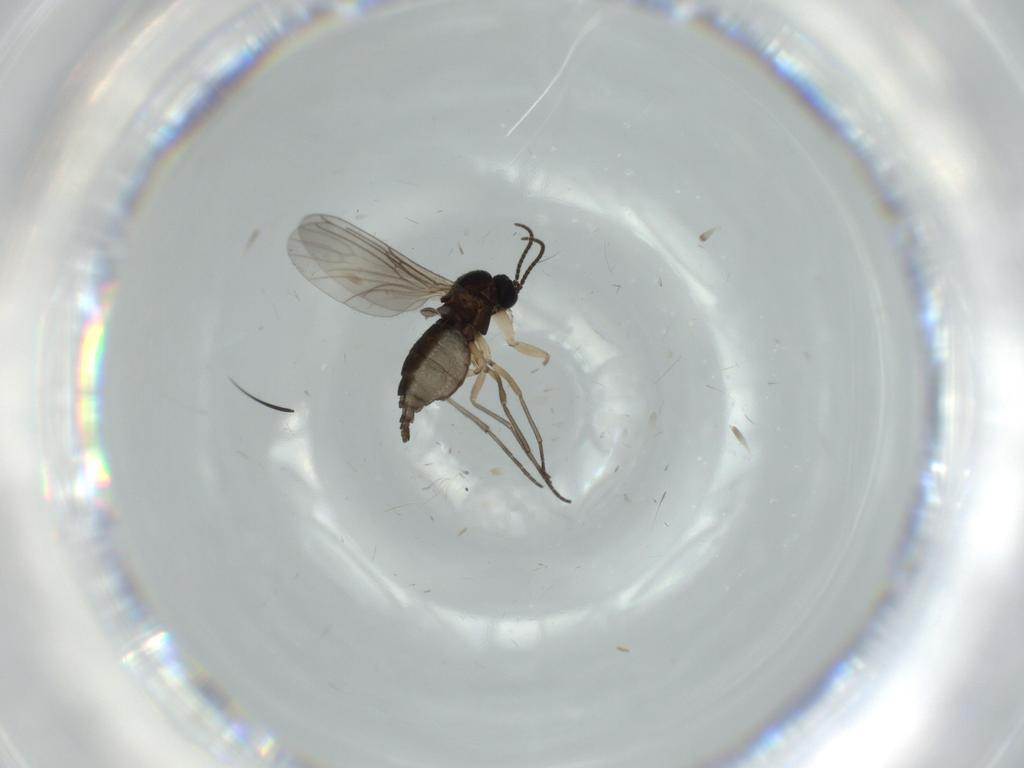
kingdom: Animalia
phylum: Arthropoda
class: Insecta
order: Diptera
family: Sciaridae
